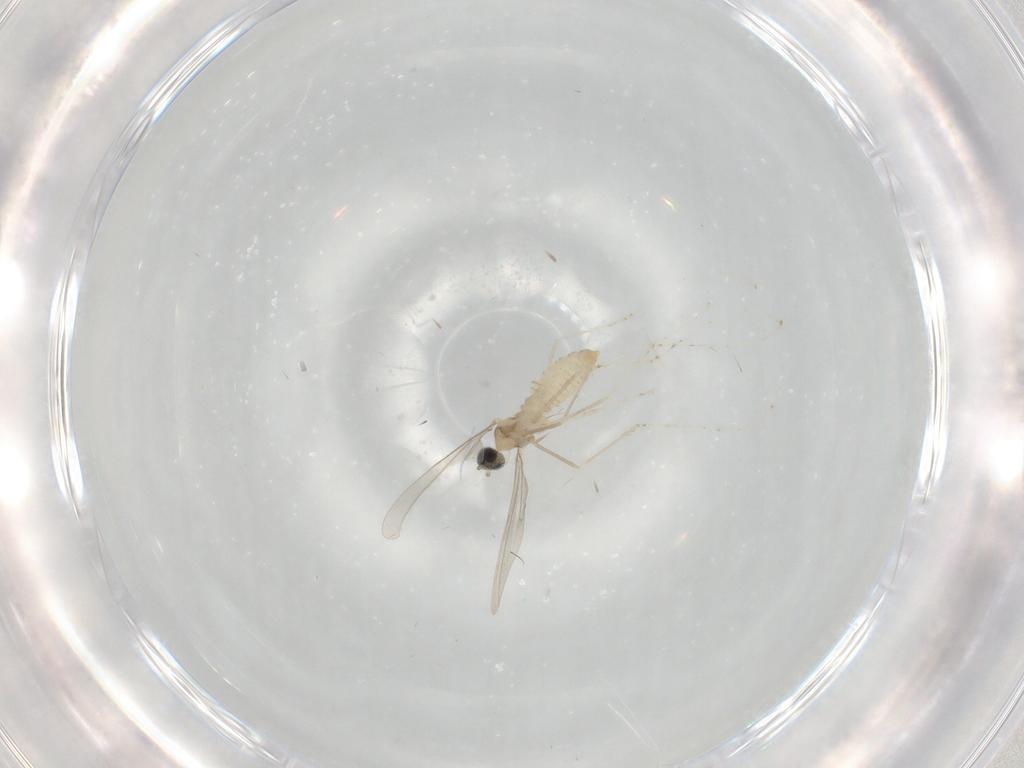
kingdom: Animalia
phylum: Arthropoda
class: Insecta
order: Diptera
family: Cecidomyiidae
